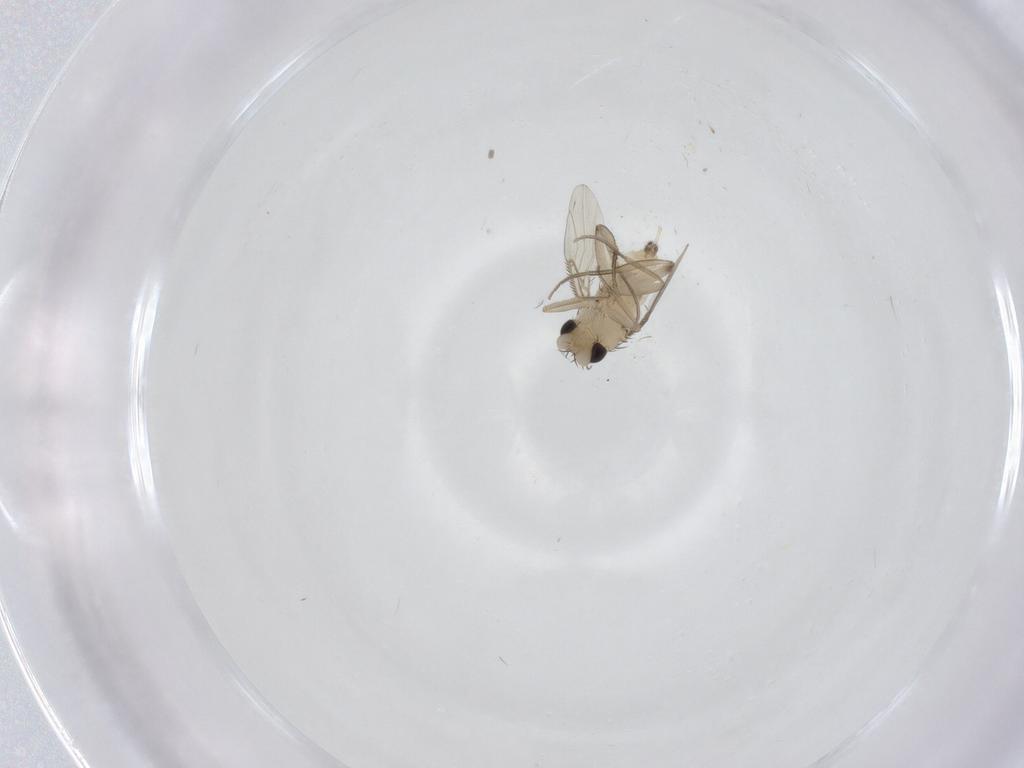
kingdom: Animalia
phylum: Arthropoda
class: Insecta
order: Diptera
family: Phoridae
